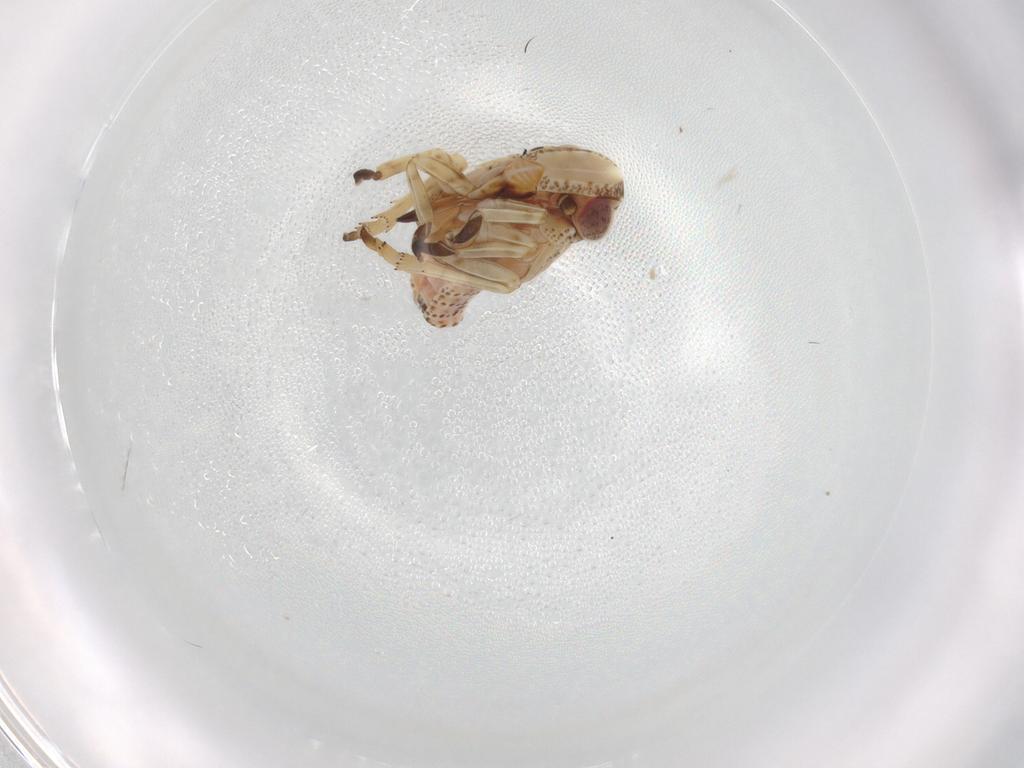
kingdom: Animalia
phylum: Arthropoda
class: Insecta
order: Hemiptera
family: Tropiduchidae
